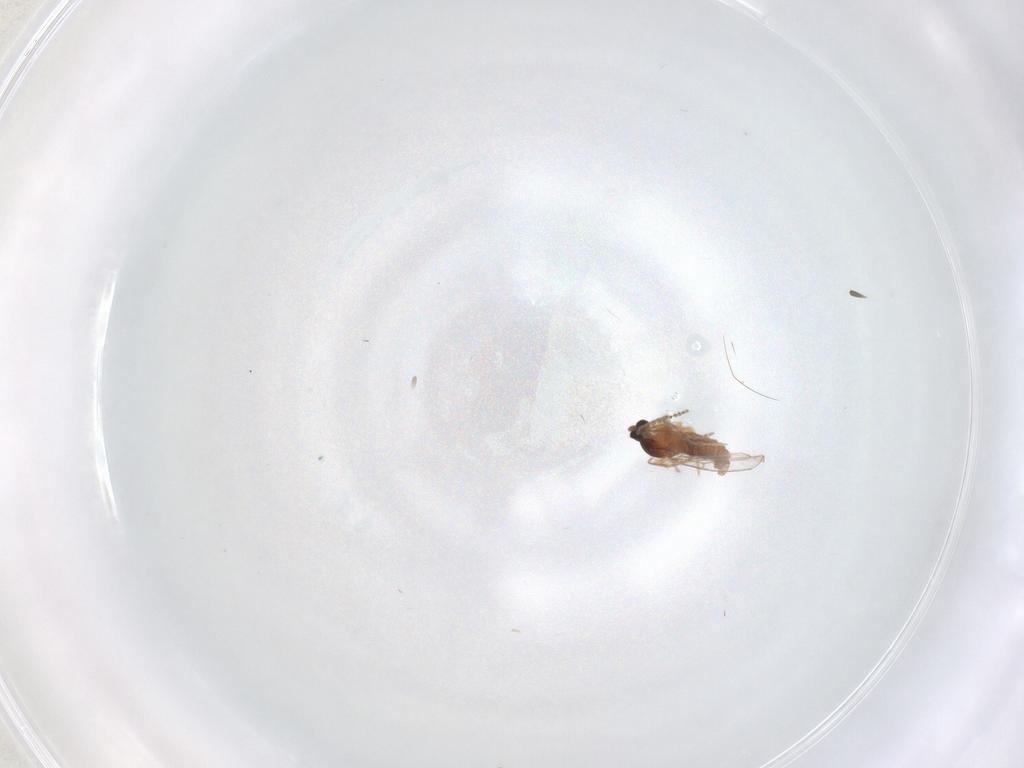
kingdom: Animalia
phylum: Arthropoda
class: Insecta
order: Diptera
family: Cecidomyiidae
